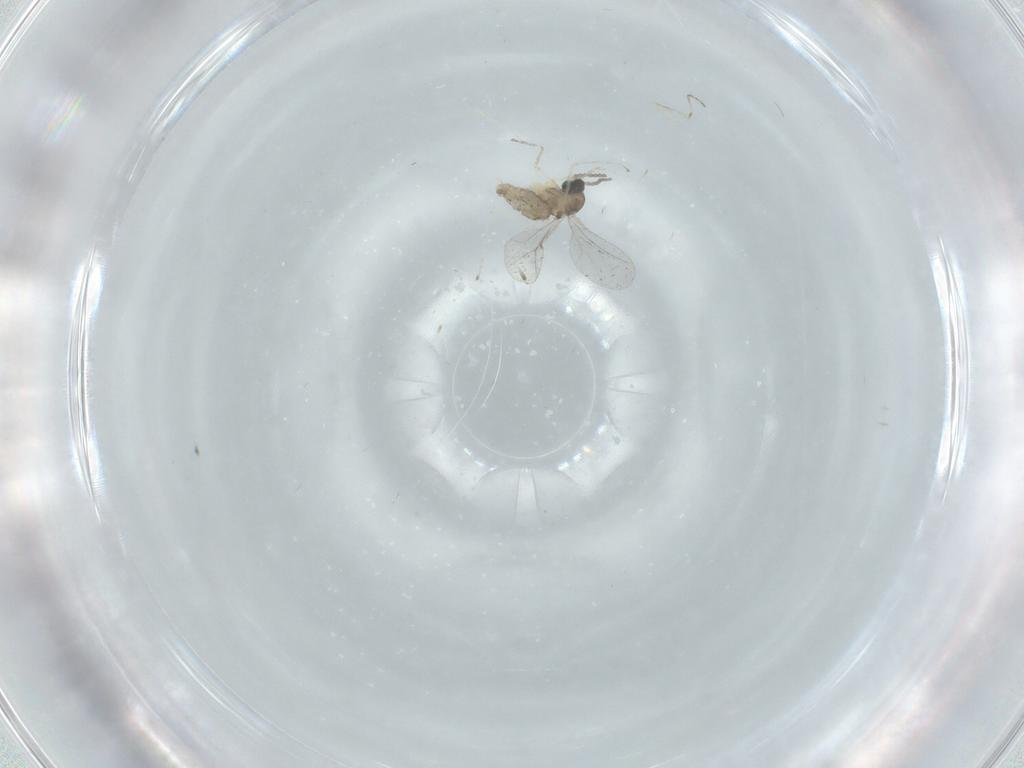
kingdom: Animalia
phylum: Arthropoda
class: Insecta
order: Diptera
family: Cecidomyiidae
